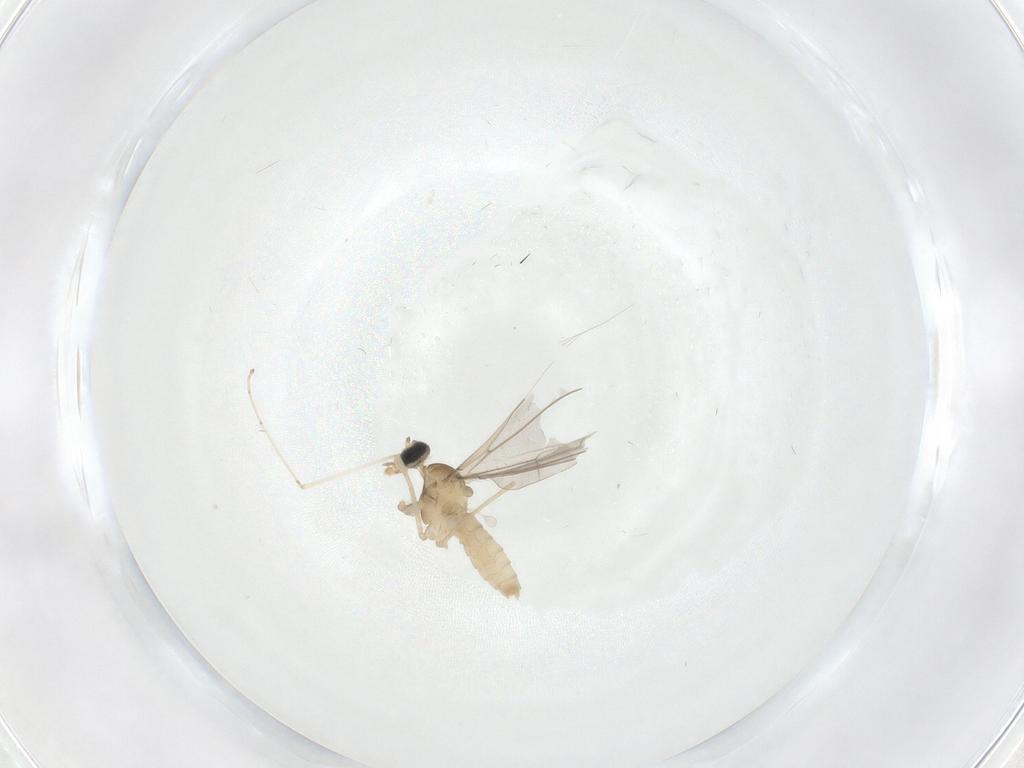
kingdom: Animalia
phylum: Arthropoda
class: Insecta
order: Diptera
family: Cecidomyiidae
